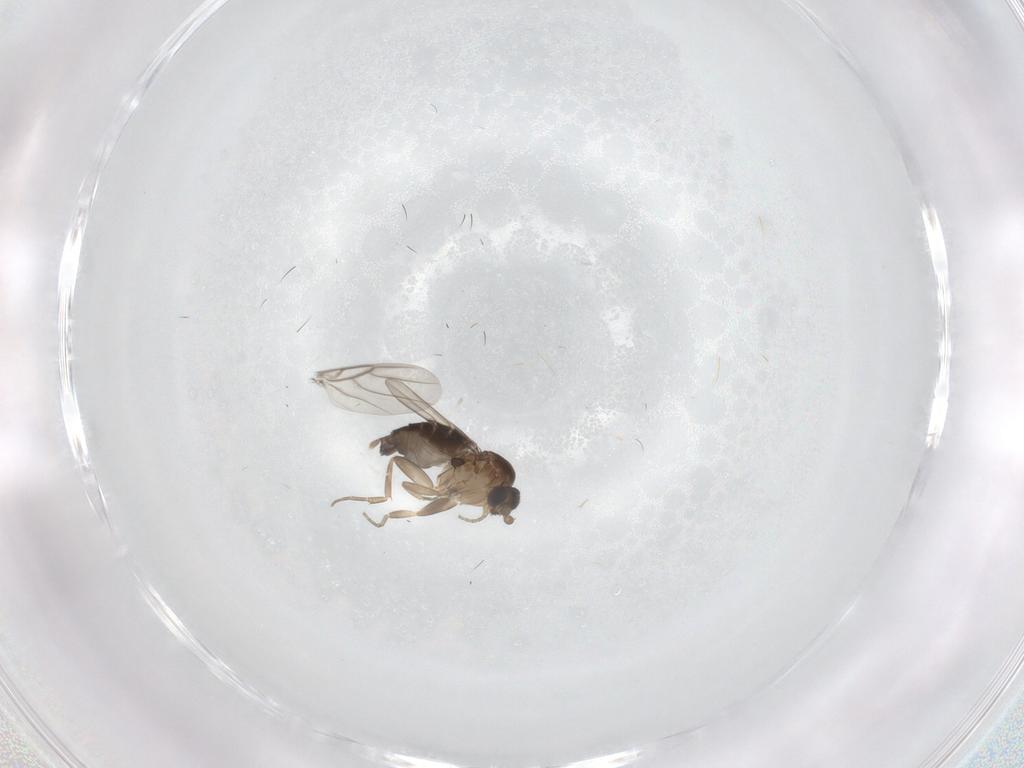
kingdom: Animalia
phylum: Arthropoda
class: Insecta
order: Diptera
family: Phoridae
